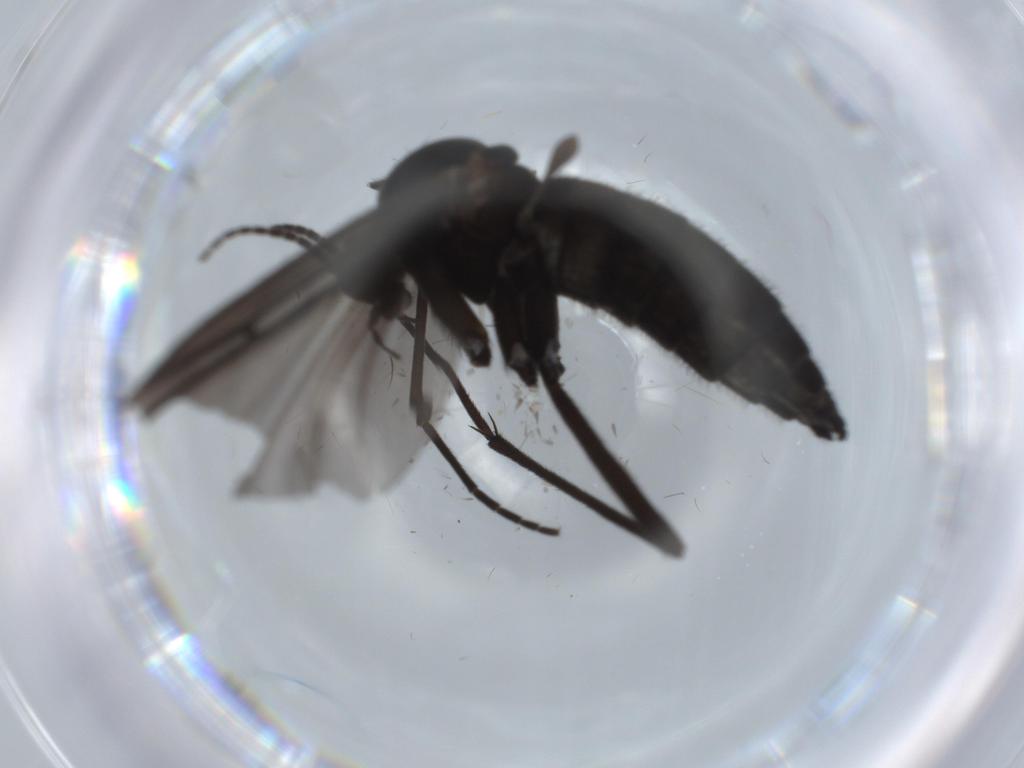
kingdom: Animalia
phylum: Arthropoda
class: Insecta
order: Diptera
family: Sciaridae
